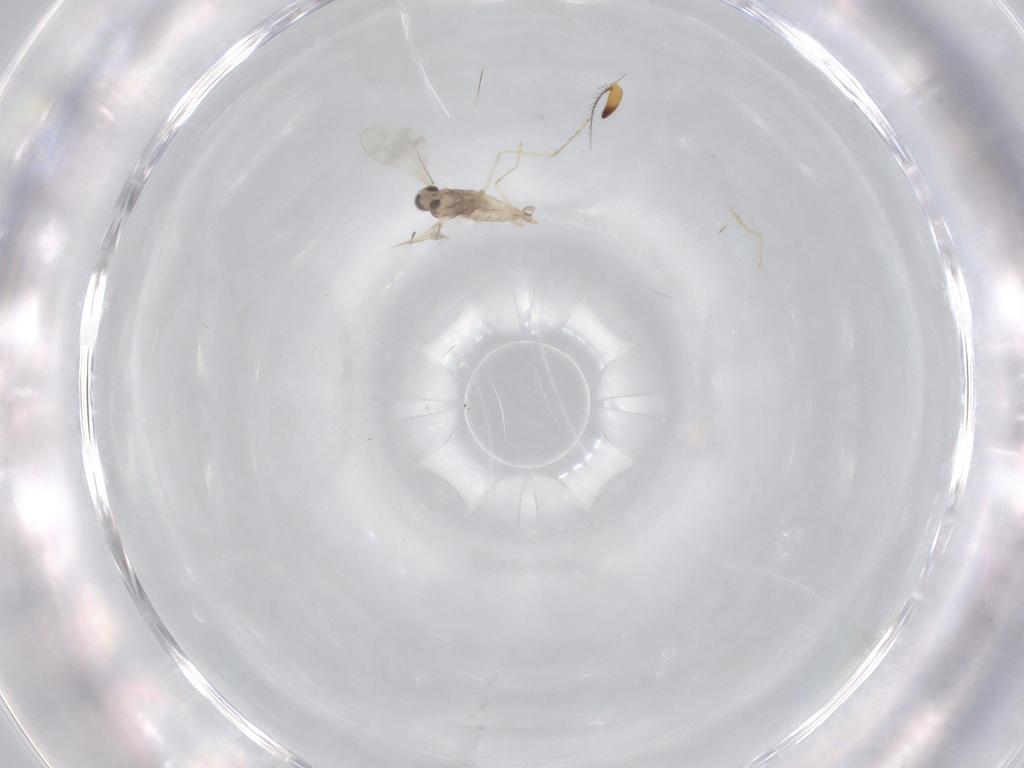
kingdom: Animalia
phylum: Arthropoda
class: Insecta
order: Diptera
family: Cecidomyiidae
